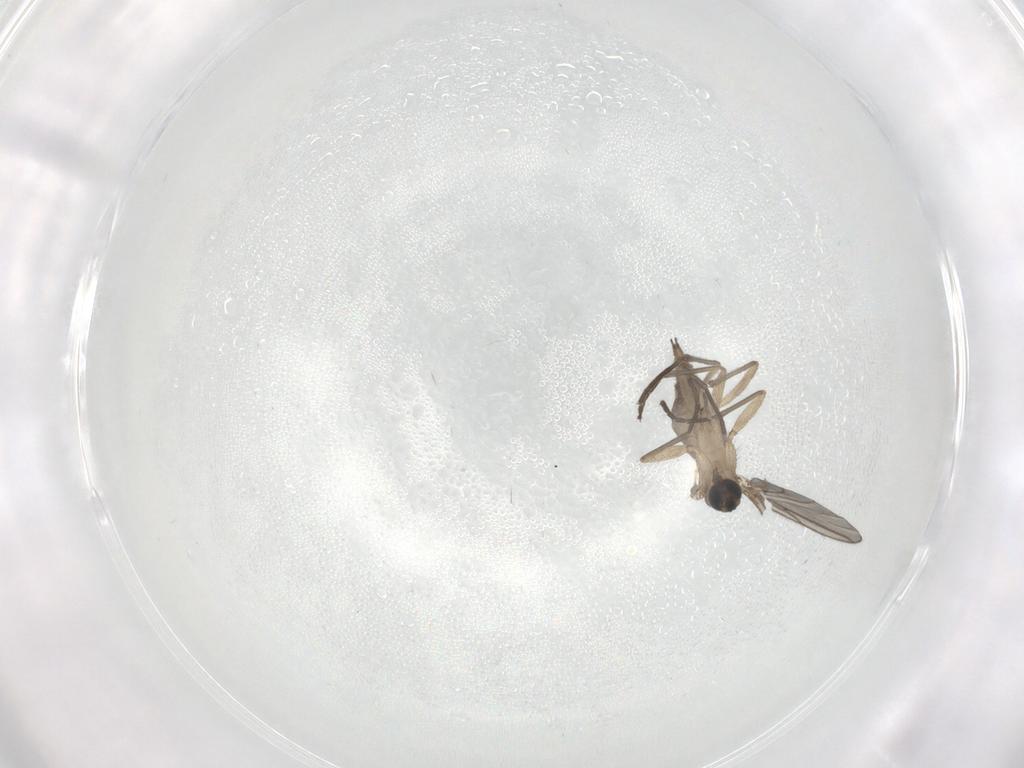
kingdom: Animalia
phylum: Arthropoda
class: Insecta
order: Diptera
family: Sciaridae
